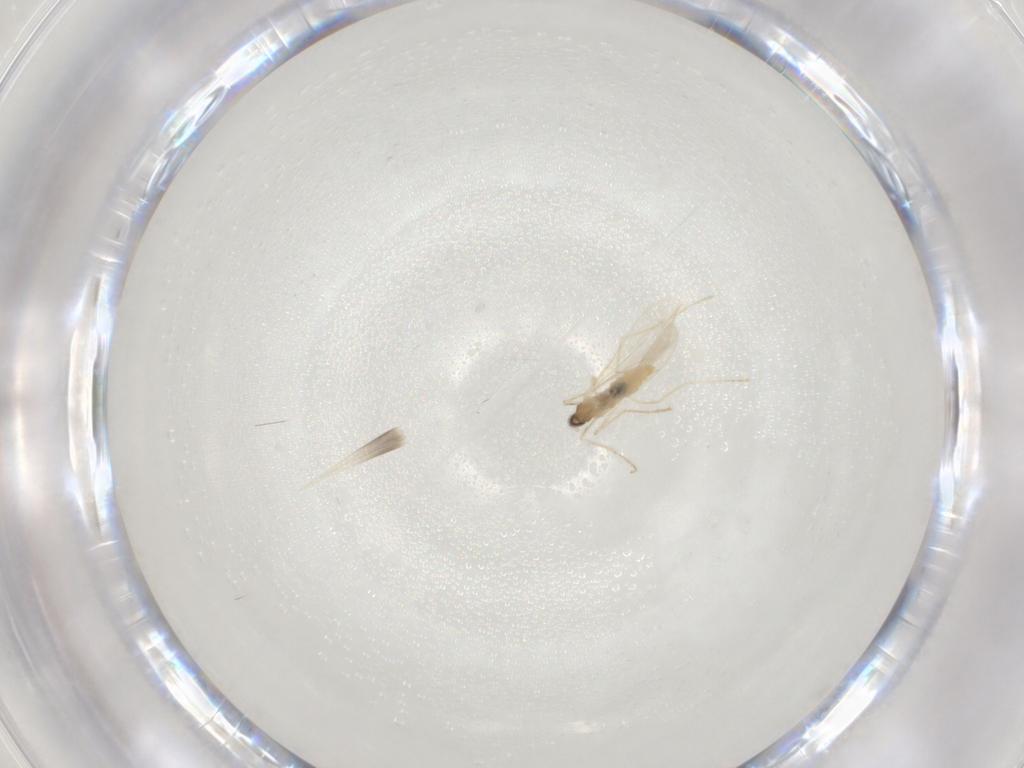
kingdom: Animalia
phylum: Arthropoda
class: Insecta
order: Diptera
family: Cecidomyiidae
